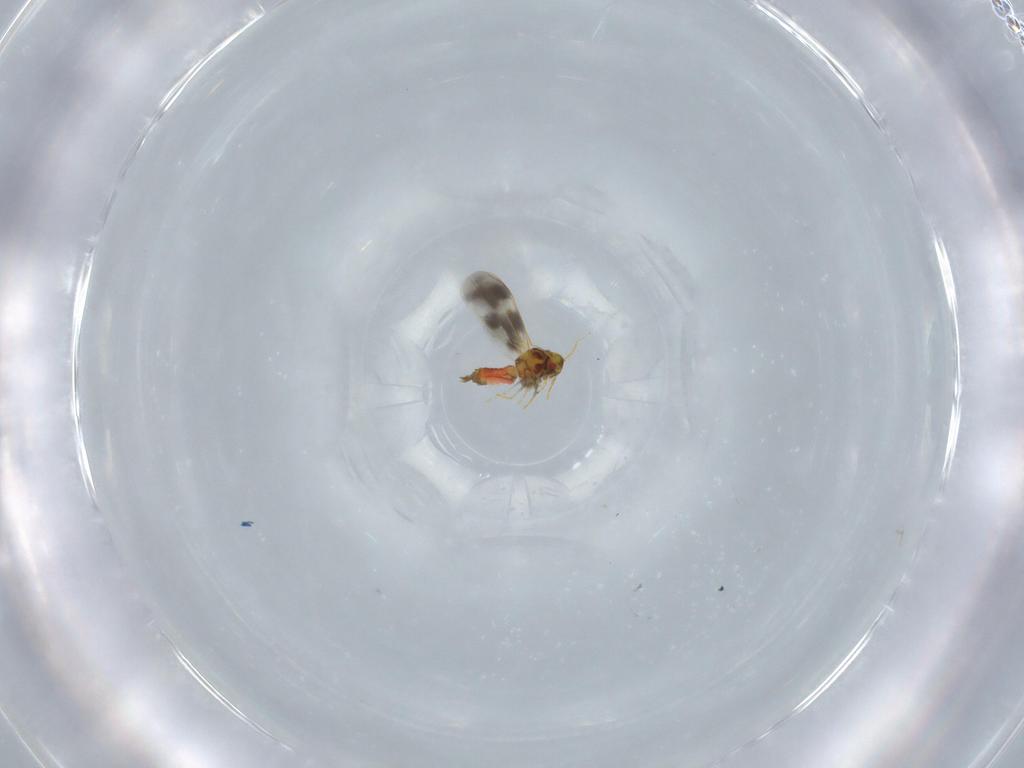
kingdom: Animalia
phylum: Arthropoda
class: Insecta
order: Hemiptera
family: Aleyrodidae
